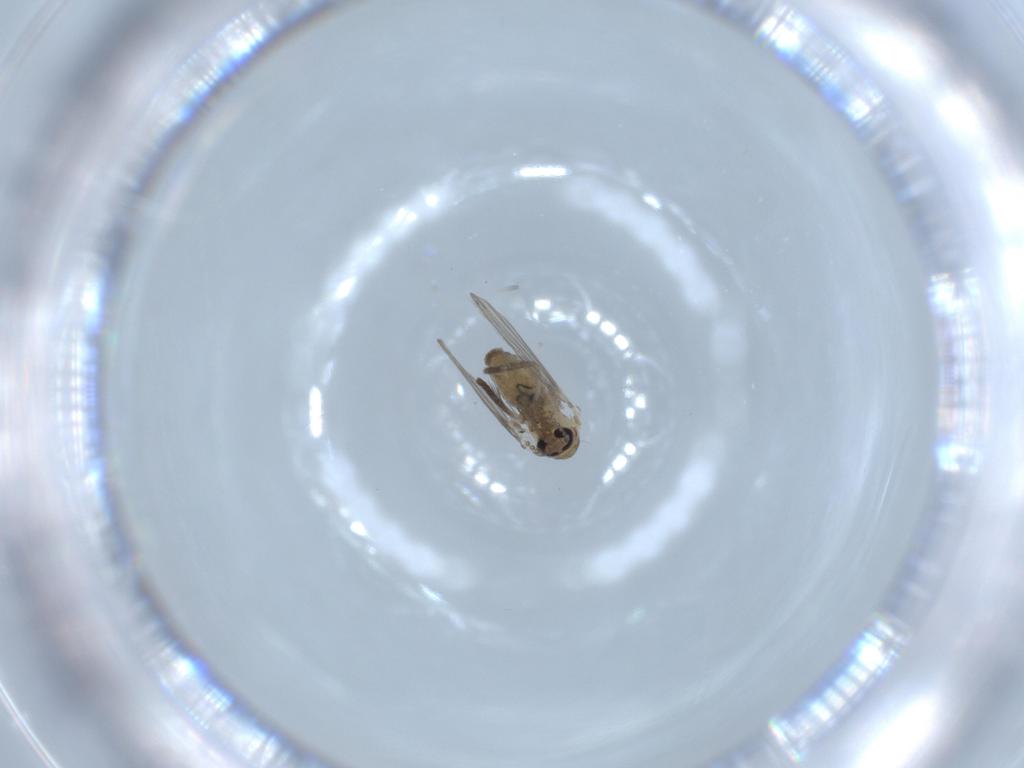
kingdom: Animalia
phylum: Arthropoda
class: Insecta
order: Diptera
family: Psychodidae
